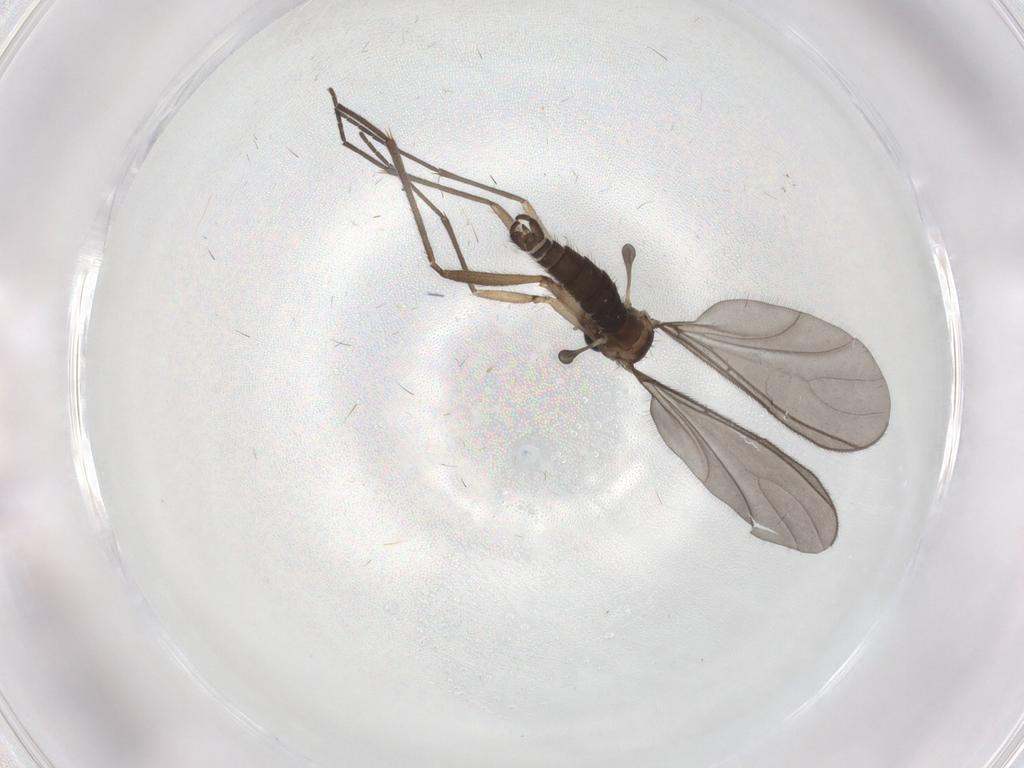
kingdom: Animalia
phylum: Arthropoda
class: Insecta
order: Diptera
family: Sciaridae
